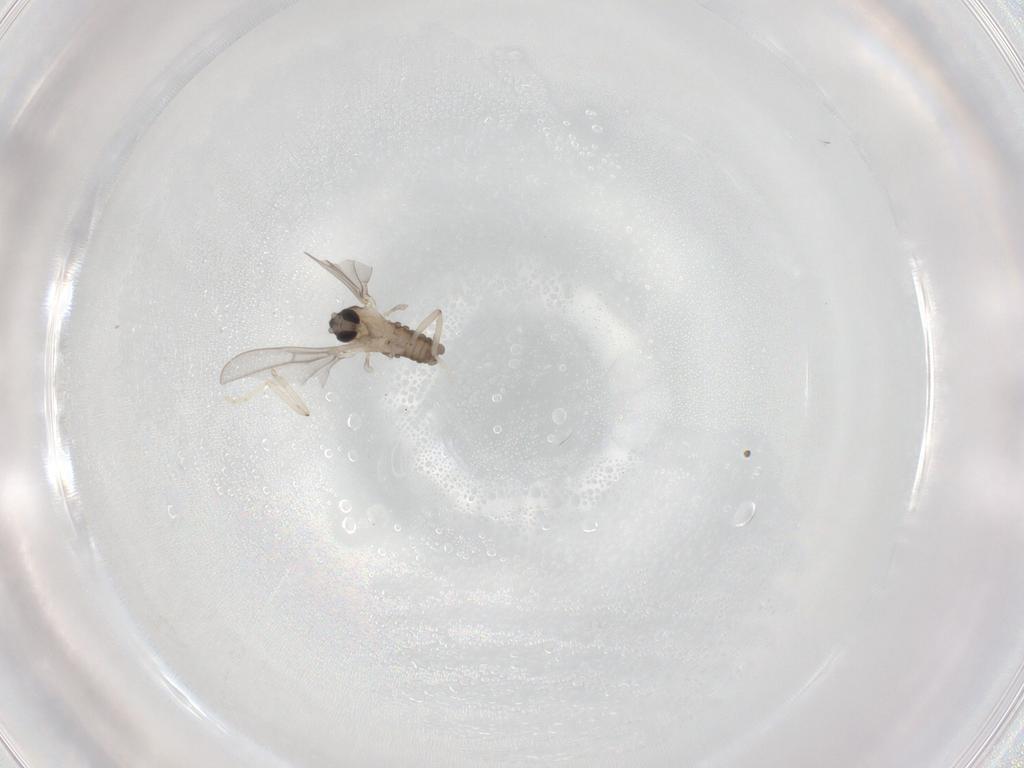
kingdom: Animalia
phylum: Arthropoda
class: Insecta
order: Diptera
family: Cecidomyiidae
